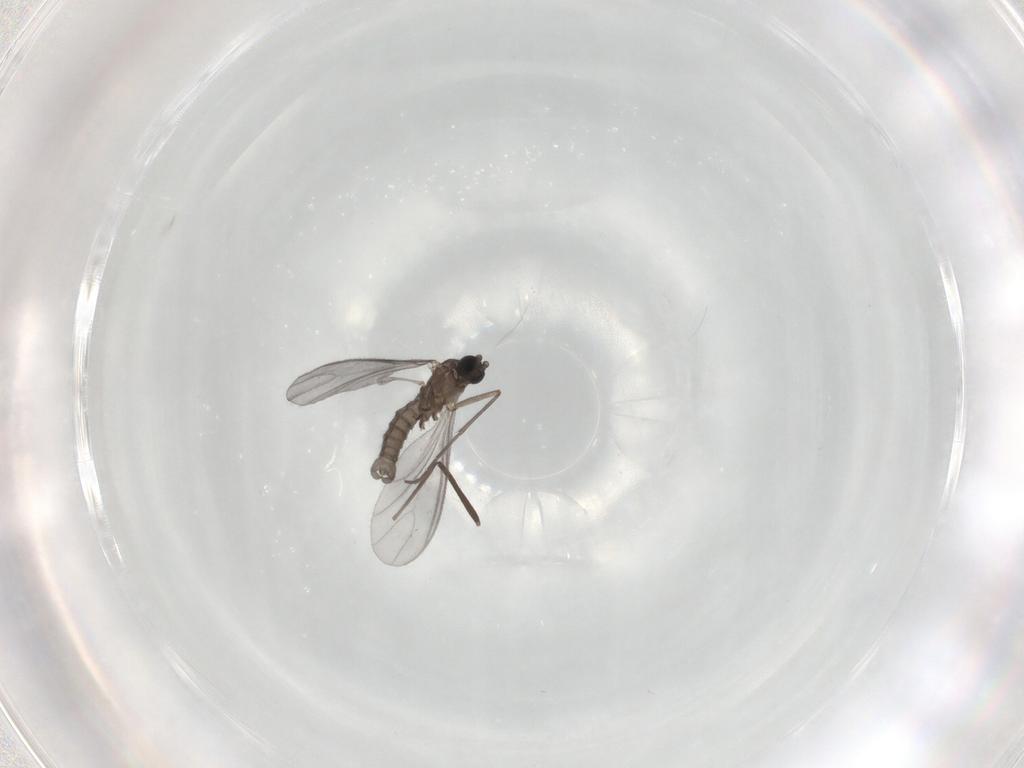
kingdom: Animalia
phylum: Arthropoda
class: Insecta
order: Diptera
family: Sciaridae
